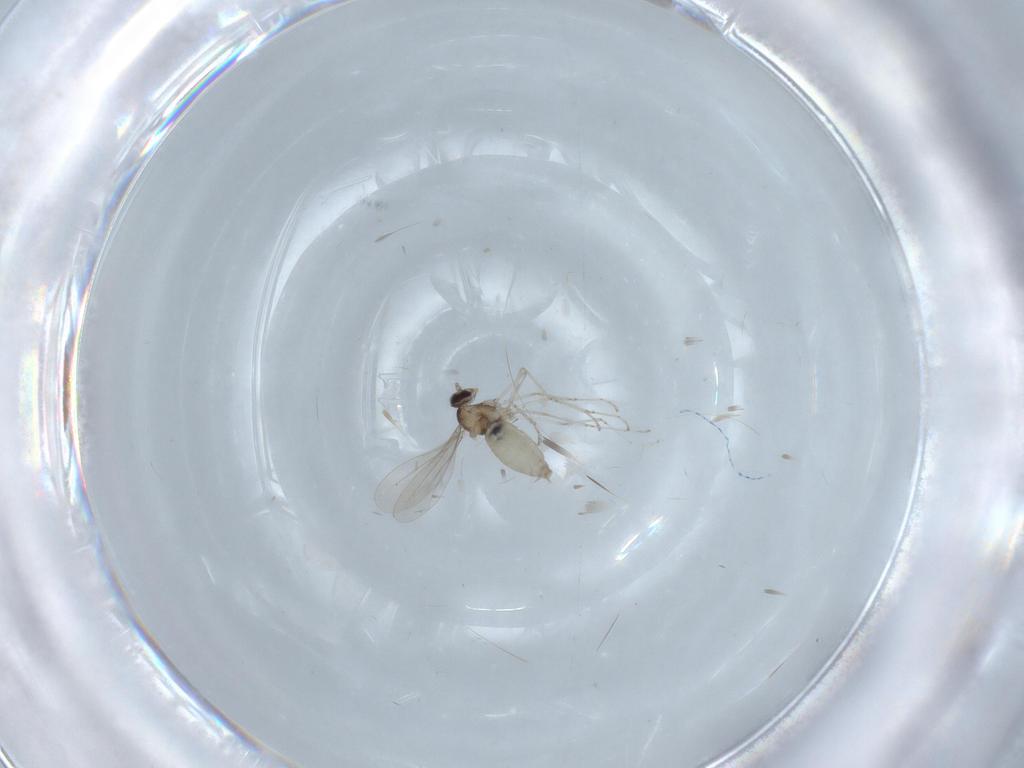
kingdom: Animalia
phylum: Arthropoda
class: Insecta
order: Diptera
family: Cecidomyiidae
